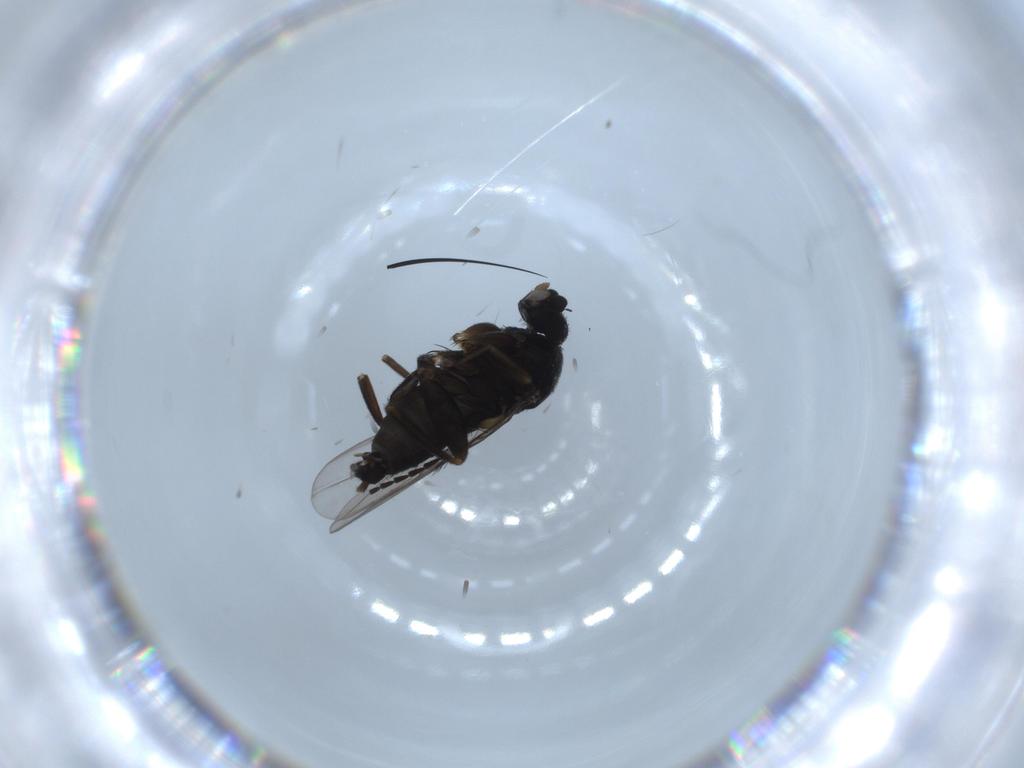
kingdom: Animalia
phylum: Arthropoda
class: Insecta
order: Diptera
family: Phoridae
